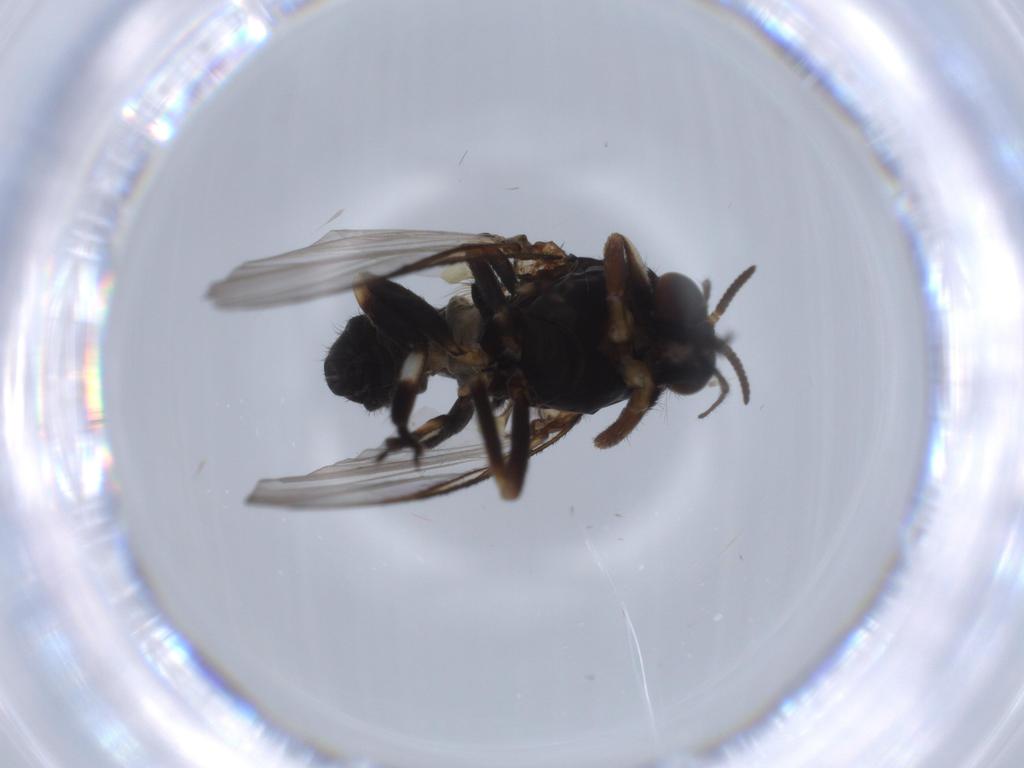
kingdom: Animalia
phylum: Arthropoda
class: Insecta
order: Diptera
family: Chironomidae
